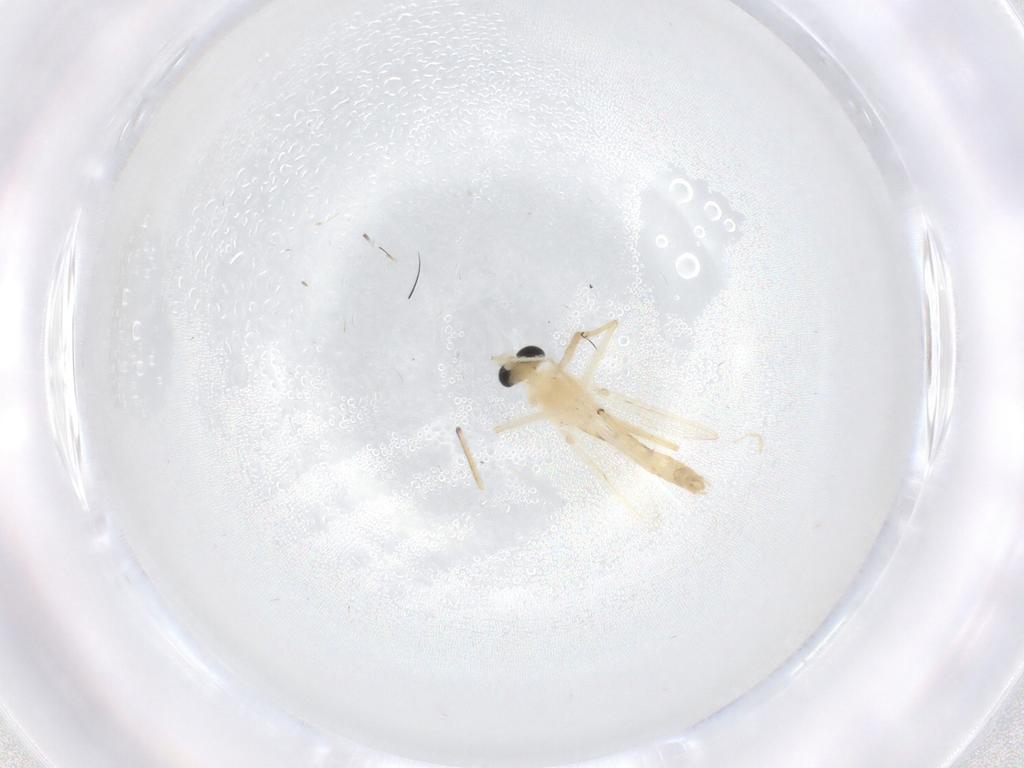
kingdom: Animalia
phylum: Arthropoda
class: Insecta
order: Diptera
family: Chironomidae
